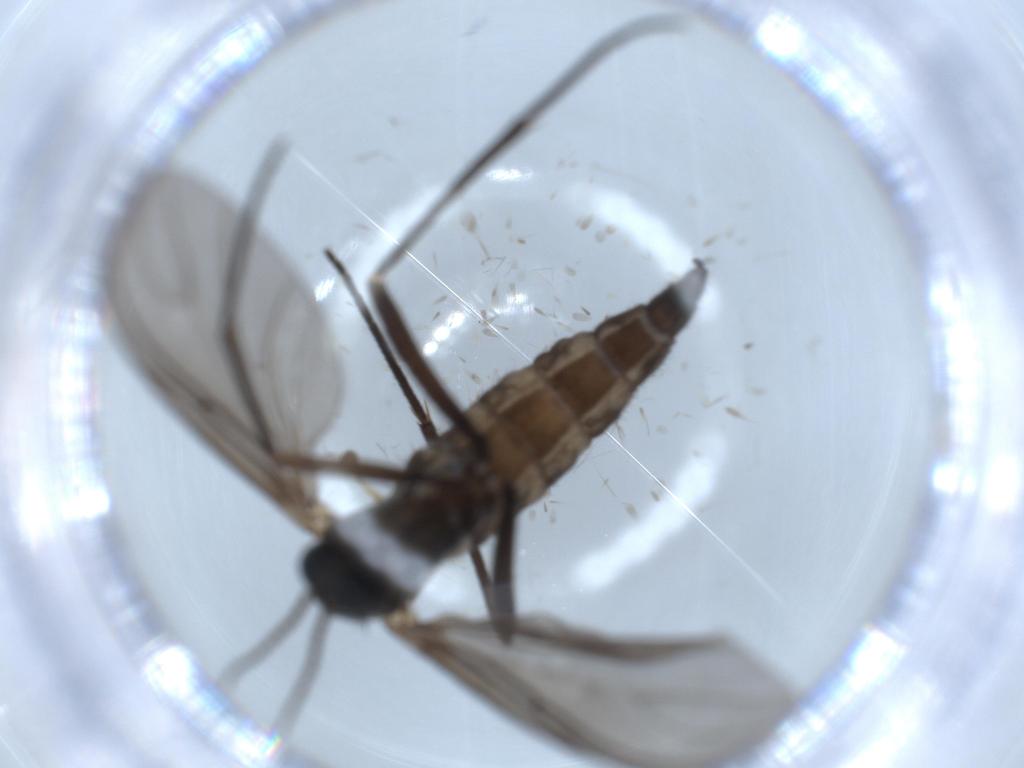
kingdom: Animalia
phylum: Arthropoda
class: Insecta
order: Diptera
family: Sciaridae
